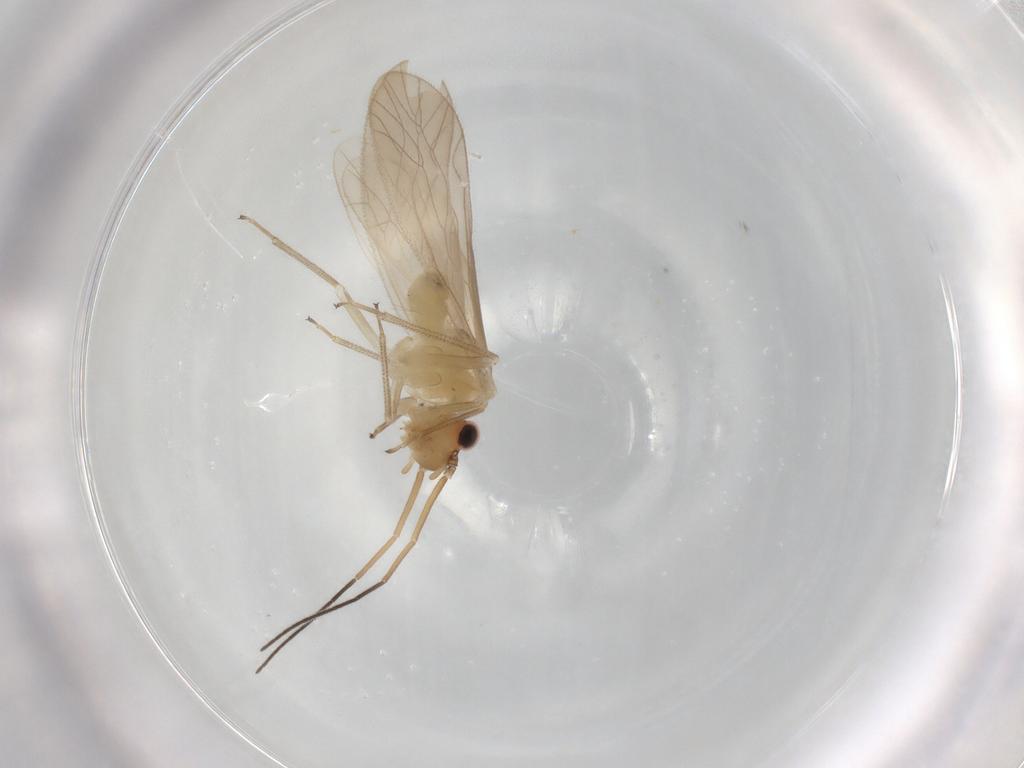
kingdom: Animalia
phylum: Arthropoda
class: Insecta
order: Psocodea
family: Caeciliusidae
